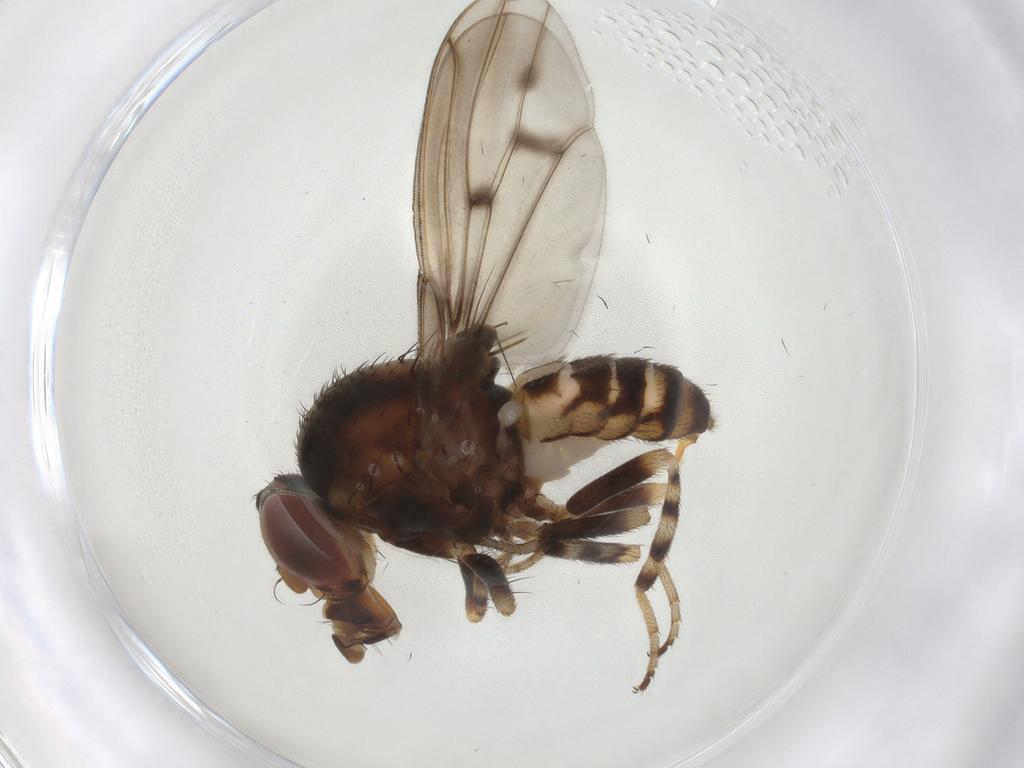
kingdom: Animalia
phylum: Arthropoda
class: Insecta
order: Diptera
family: Drosophilidae
